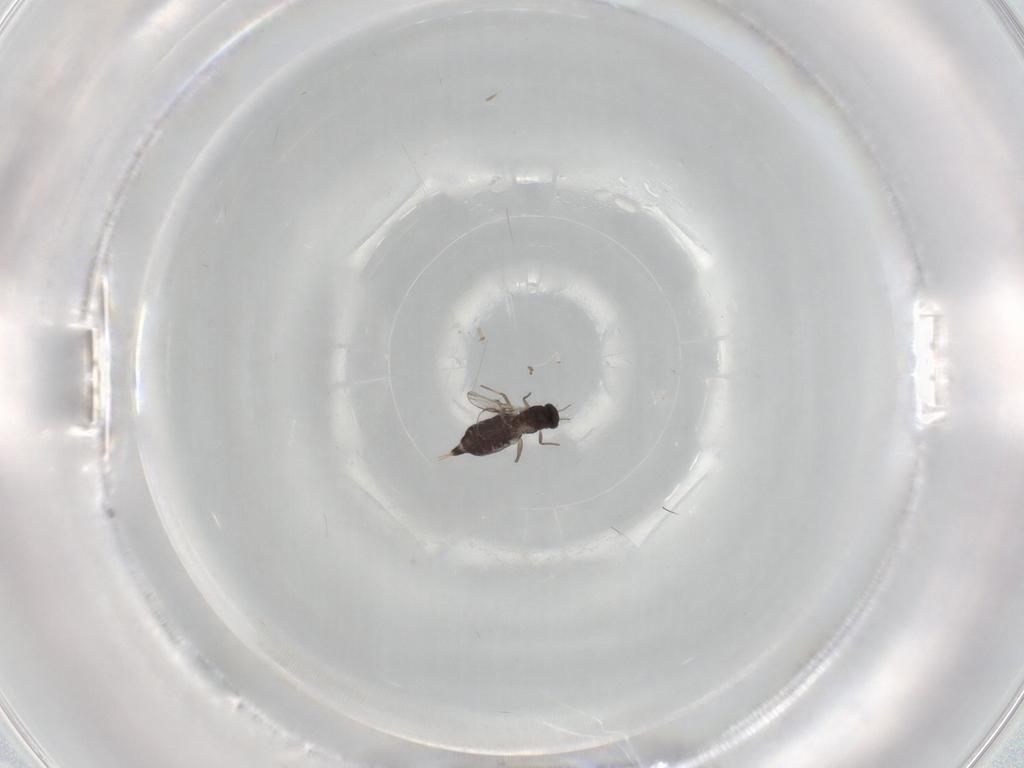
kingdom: Animalia
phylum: Arthropoda
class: Insecta
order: Diptera
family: Chironomidae
